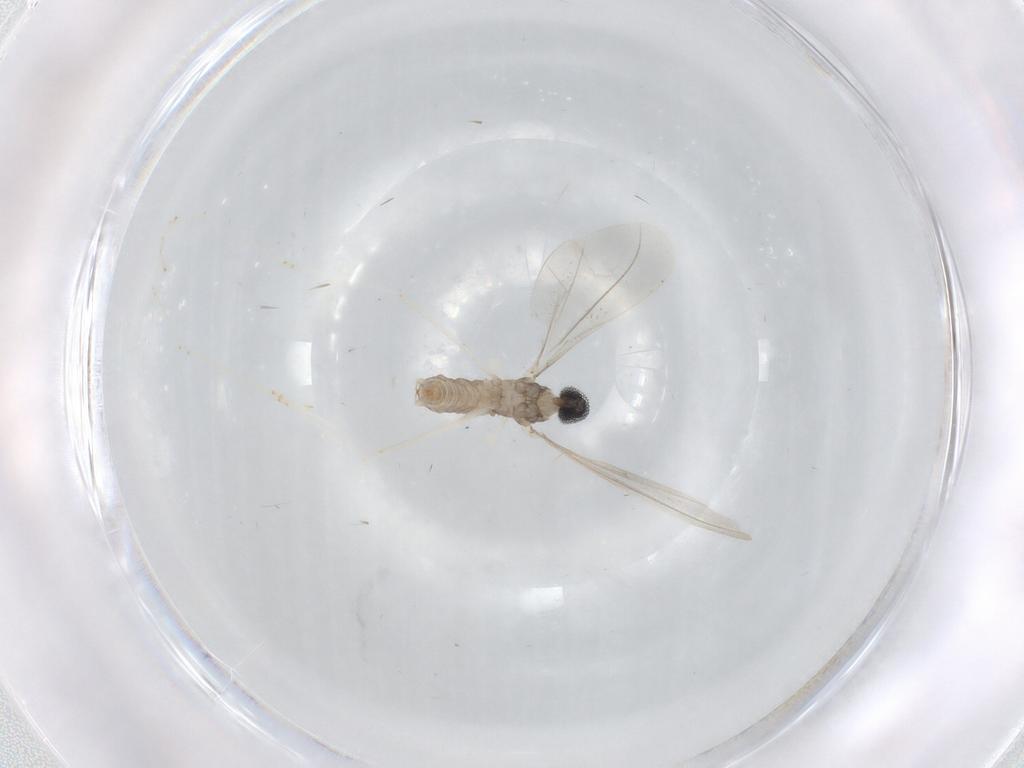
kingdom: Animalia
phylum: Arthropoda
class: Insecta
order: Diptera
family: Cecidomyiidae
